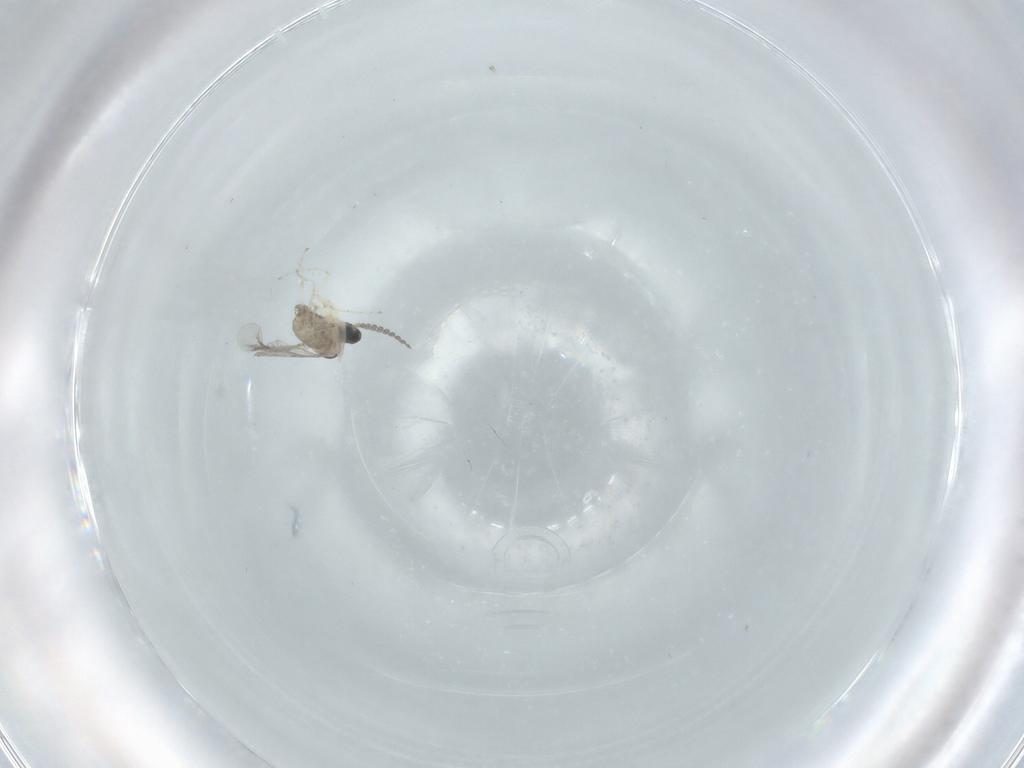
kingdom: Animalia
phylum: Arthropoda
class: Insecta
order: Diptera
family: Phoridae
